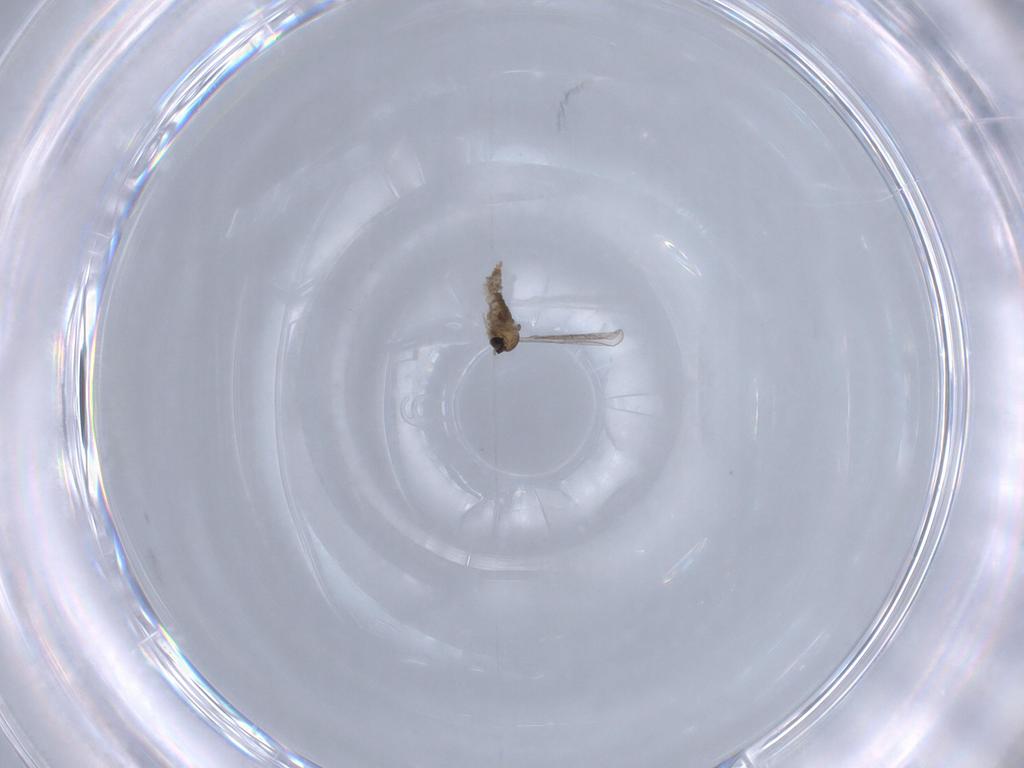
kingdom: Animalia
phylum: Arthropoda
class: Insecta
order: Diptera
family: Cecidomyiidae
